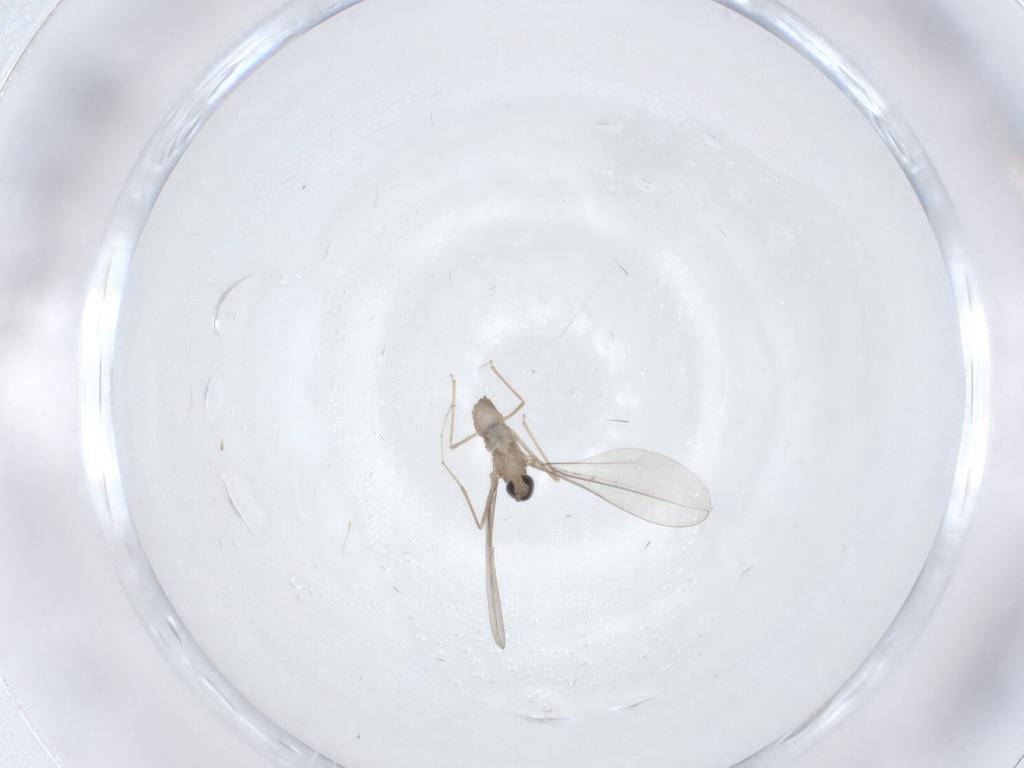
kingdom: Animalia
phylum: Arthropoda
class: Insecta
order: Diptera
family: Cecidomyiidae
